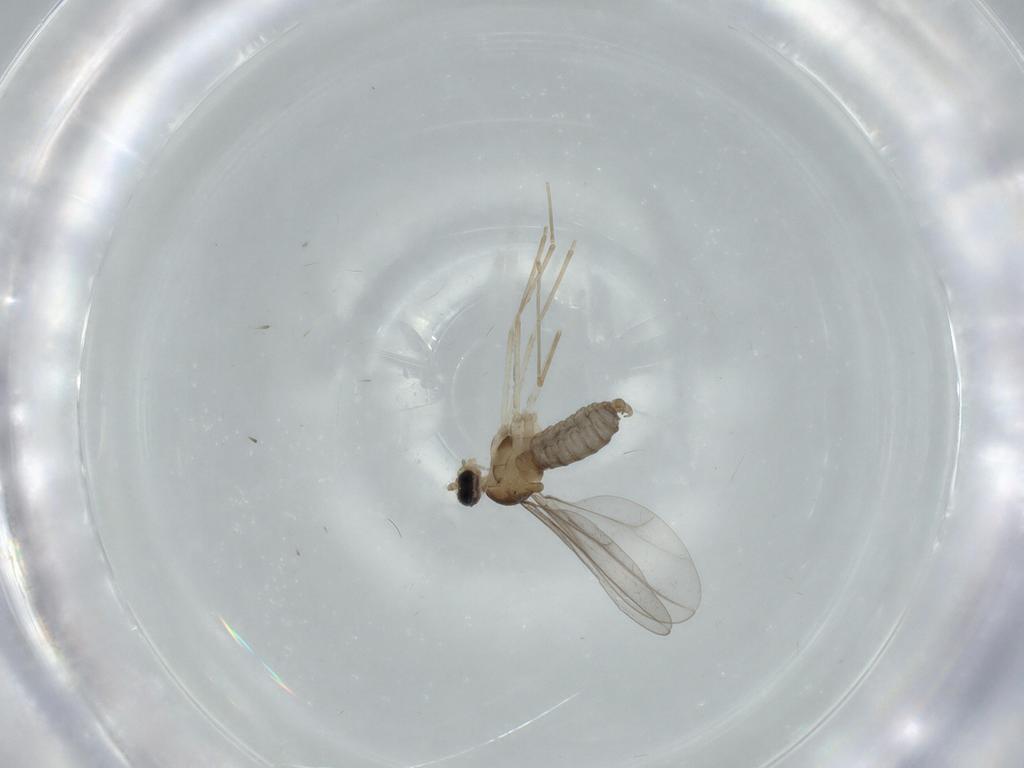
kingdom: Animalia
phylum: Arthropoda
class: Insecta
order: Diptera
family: Cecidomyiidae
